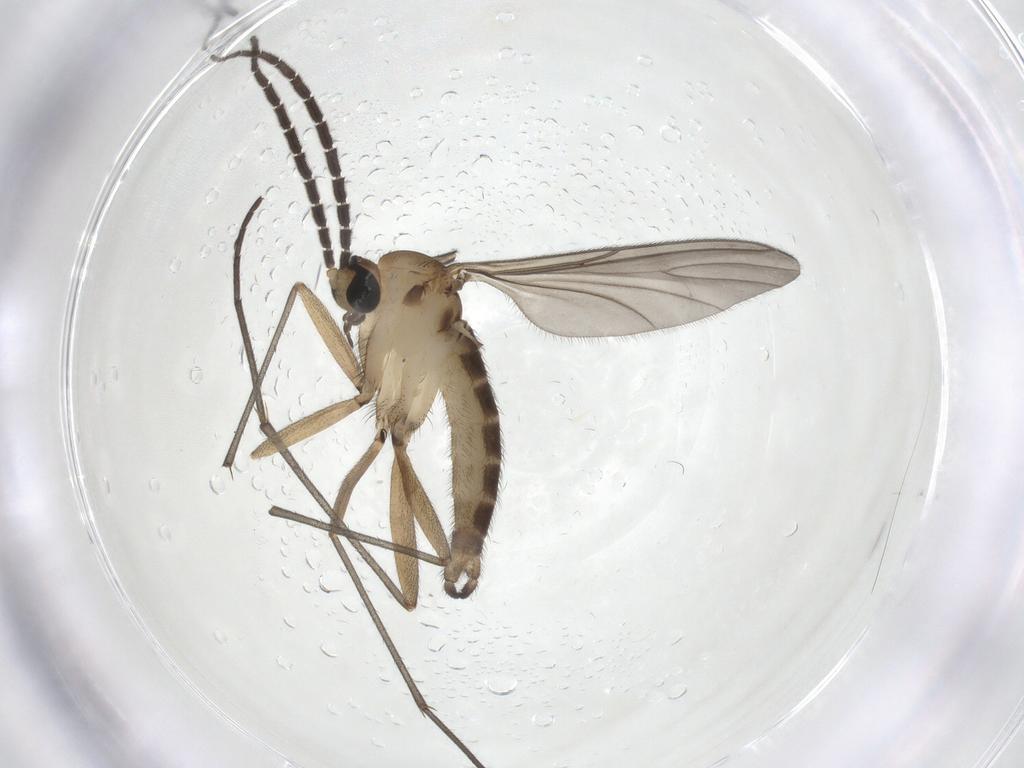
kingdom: Animalia
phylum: Arthropoda
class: Insecta
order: Diptera
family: Sciaridae
